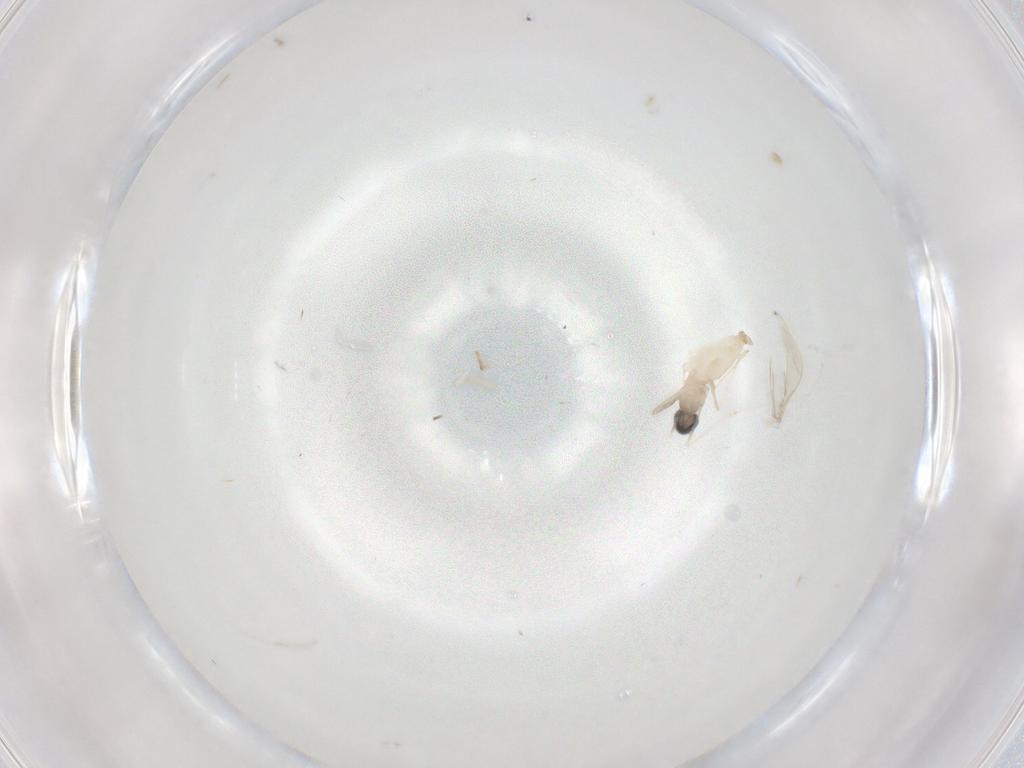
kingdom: Animalia
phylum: Arthropoda
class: Insecta
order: Diptera
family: Cecidomyiidae
